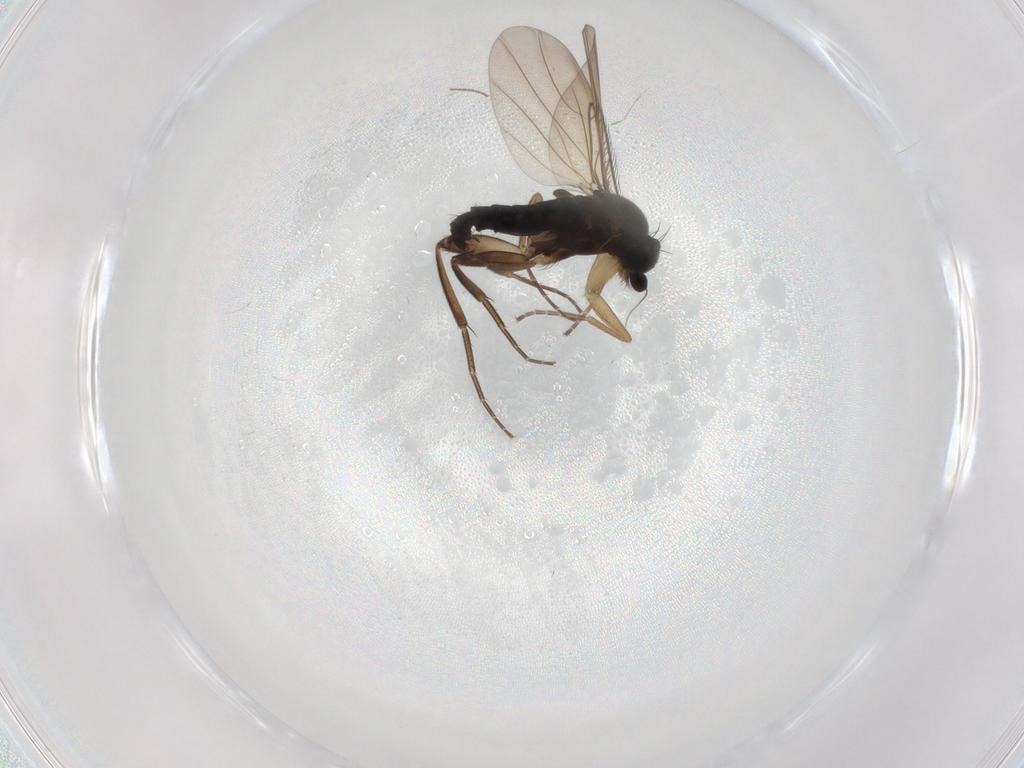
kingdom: Animalia
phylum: Arthropoda
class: Insecta
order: Diptera
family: Phoridae
